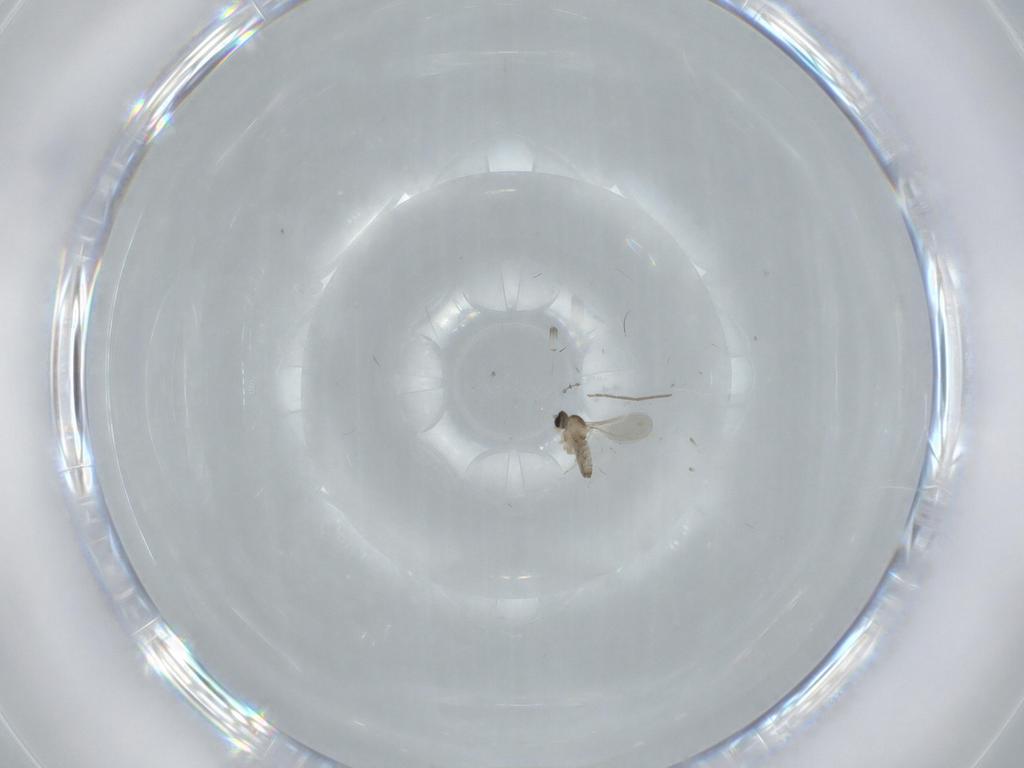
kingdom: Animalia
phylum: Arthropoda
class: Insecta
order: Diptera
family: Cecidomyiidae
